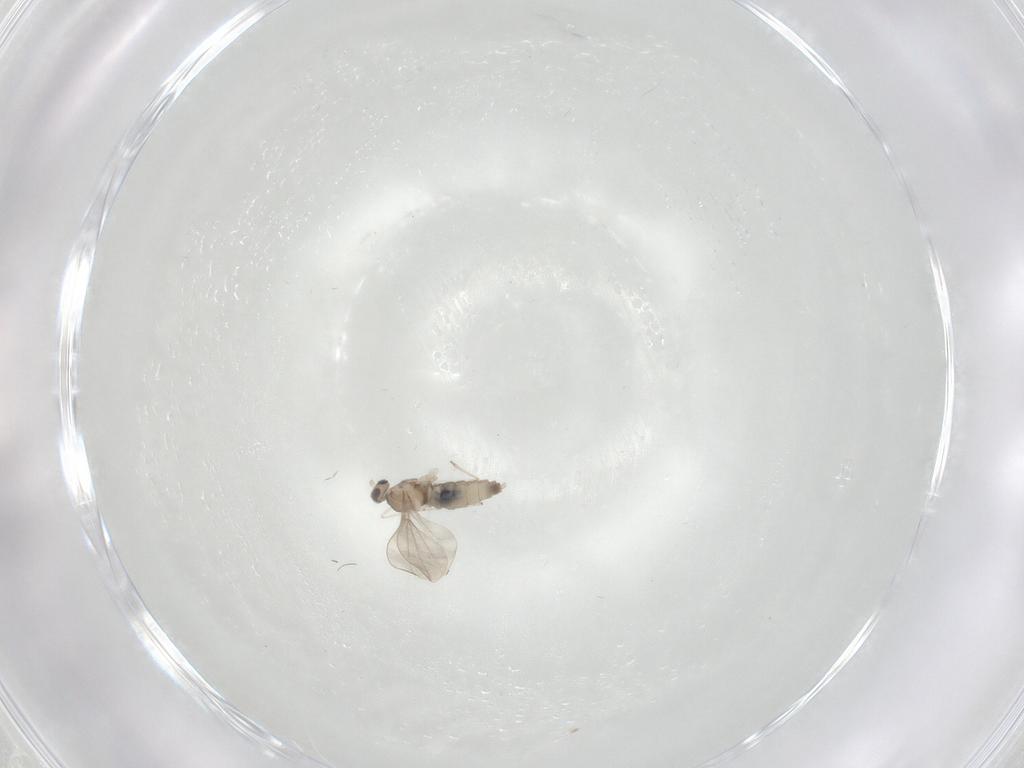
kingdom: Animalia
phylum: Arthropoda
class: Insecta
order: Diptera
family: Cecidomyiidae
